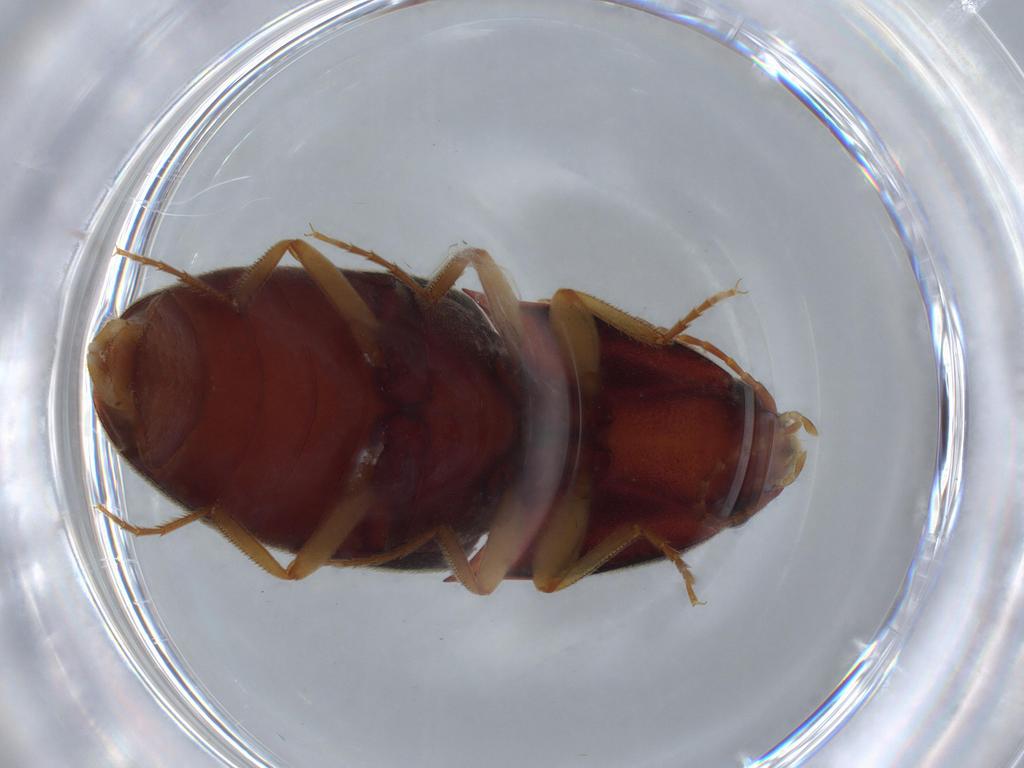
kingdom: Animalia
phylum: Arthropoda
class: Insecta
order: Coleoptera
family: Elateridae
